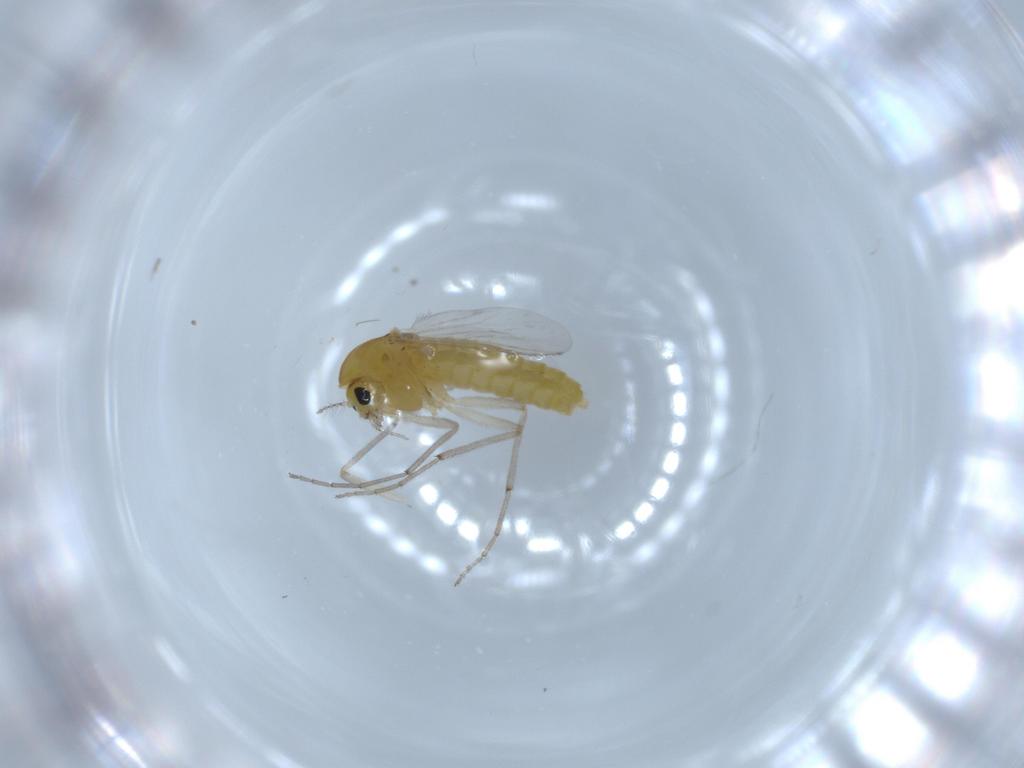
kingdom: Animalia
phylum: Arthropoda
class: Insecta
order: Diptera
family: Chironomidae
